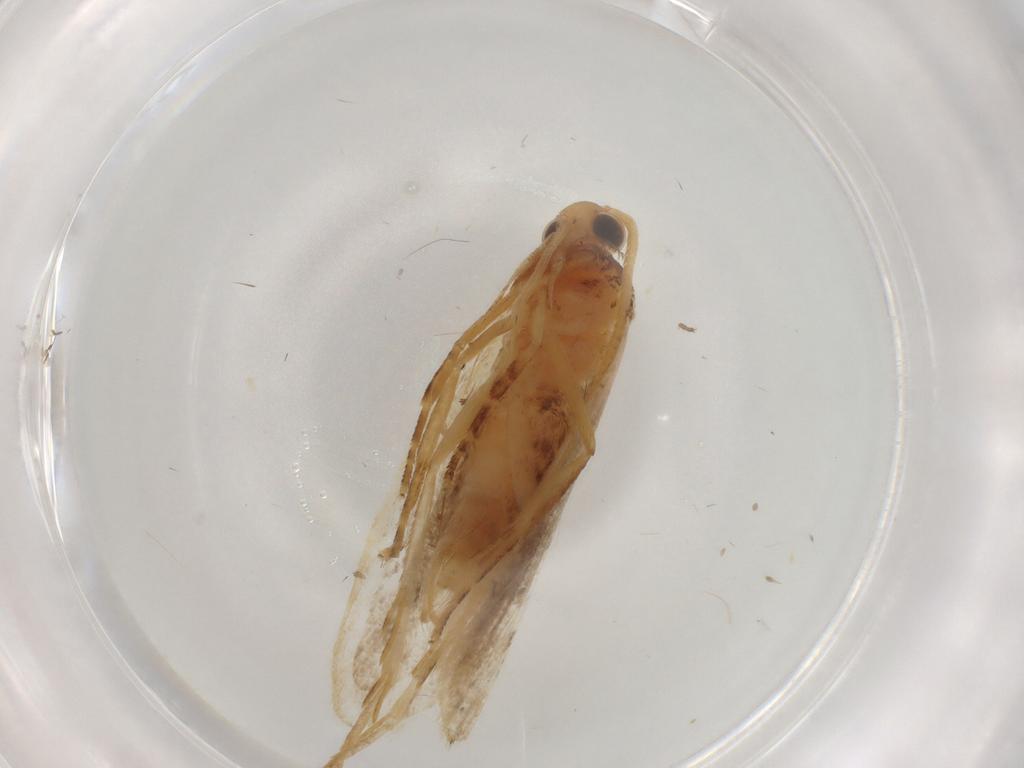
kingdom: Animalia
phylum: Arthropoda
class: Insecta
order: Lepidoptera
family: Lecithoceridae
